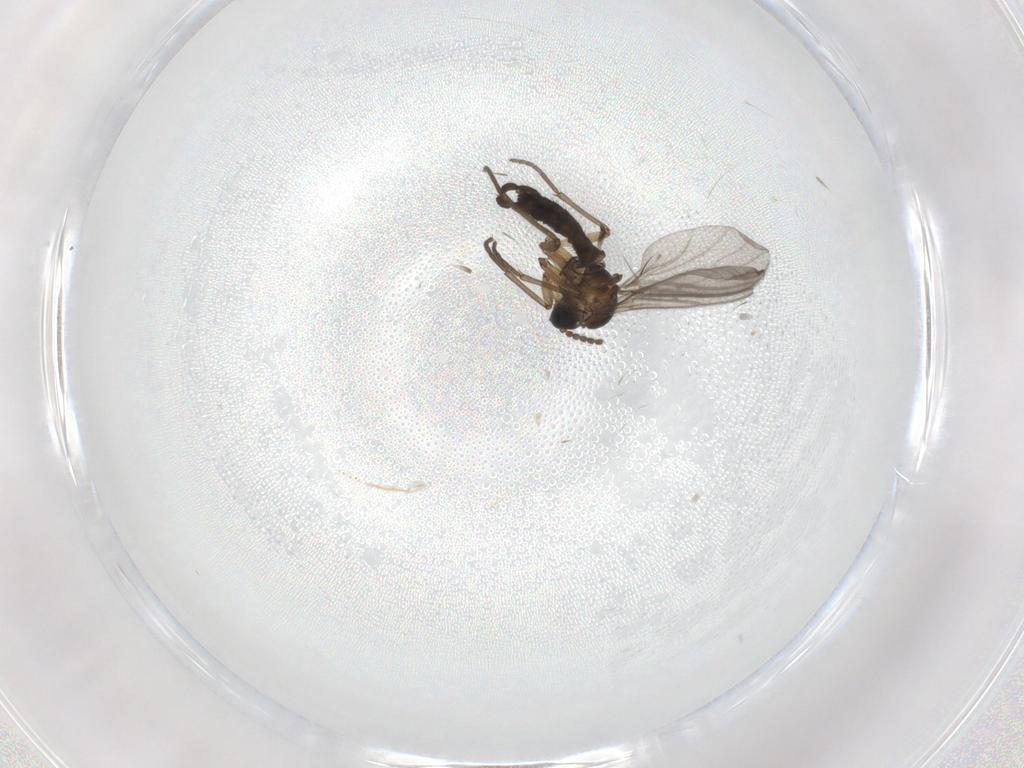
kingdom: Animalia
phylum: Arthropoda
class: Insecta
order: Diptera
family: Sciaridae
